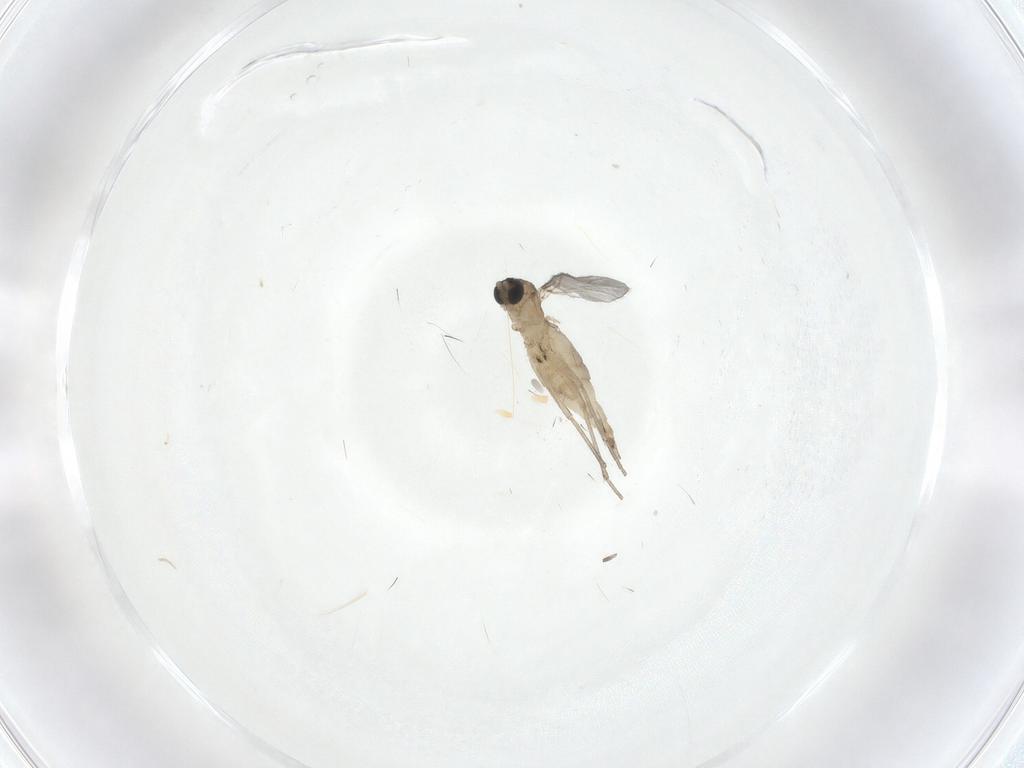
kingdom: Animalia
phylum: Arthropoda
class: Insecta
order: Diptera
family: Sciaridae
